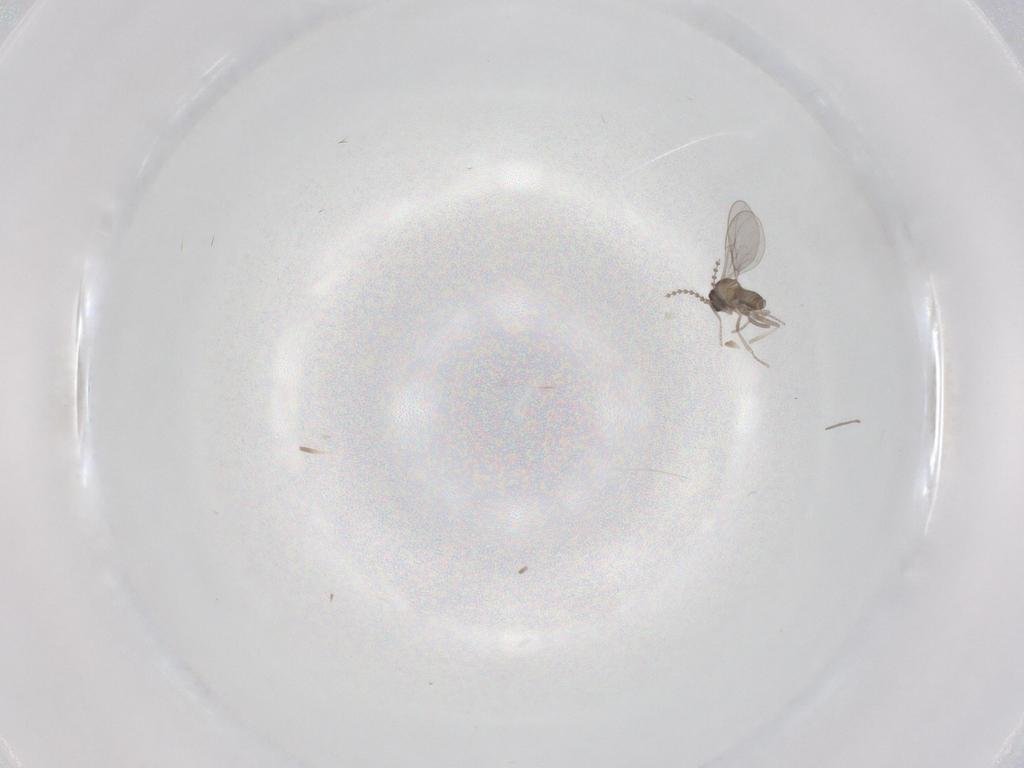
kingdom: Animalia
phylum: Arthropoda
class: Insecta
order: Diptera
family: Cecidomyiidae
